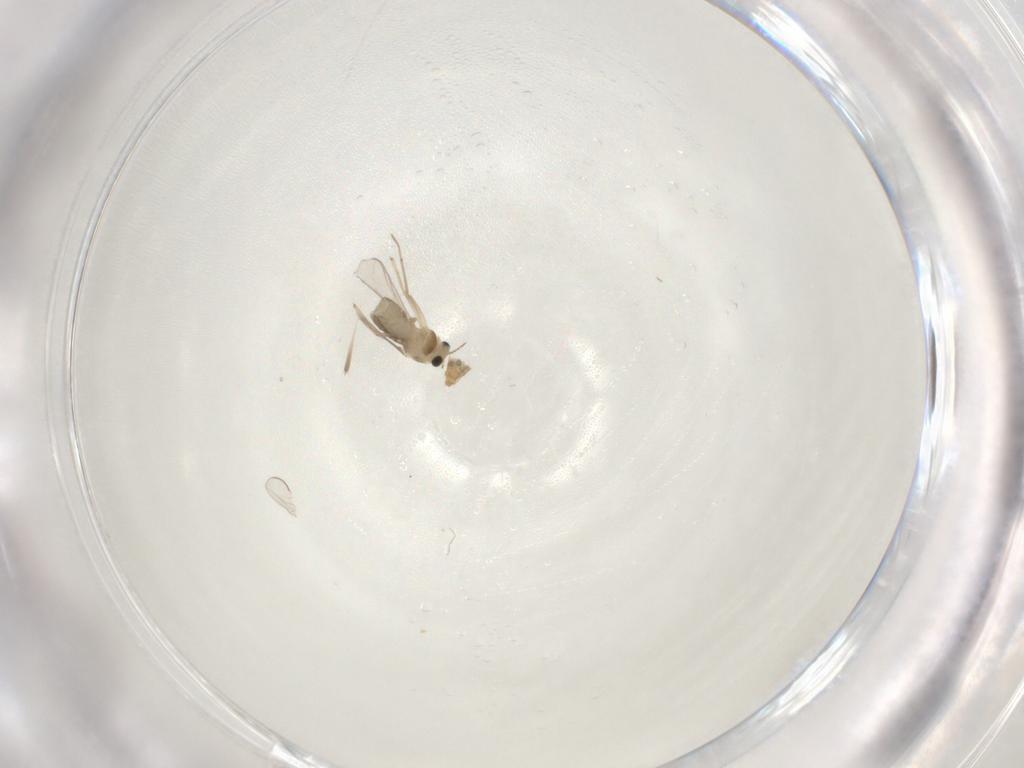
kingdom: Animalia
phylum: Arthropoda
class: Insecta
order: Diptera
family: Chironomidae
